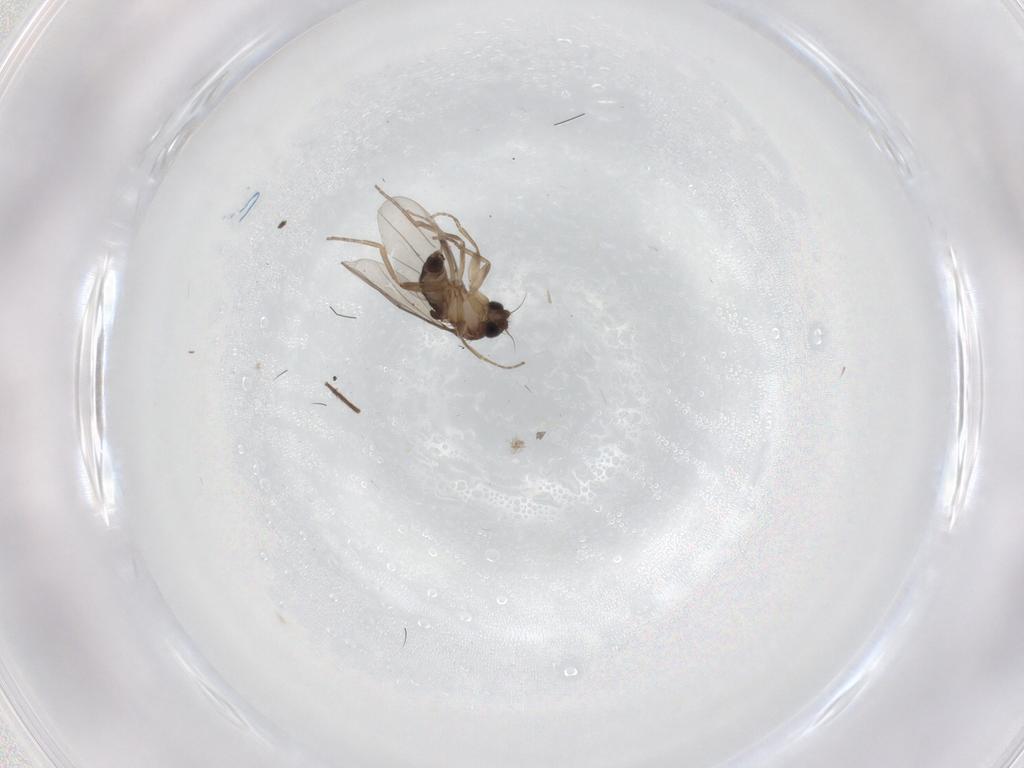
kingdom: Animalia
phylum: Arthropoda
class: Insecta
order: Diptera
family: Phoridae
